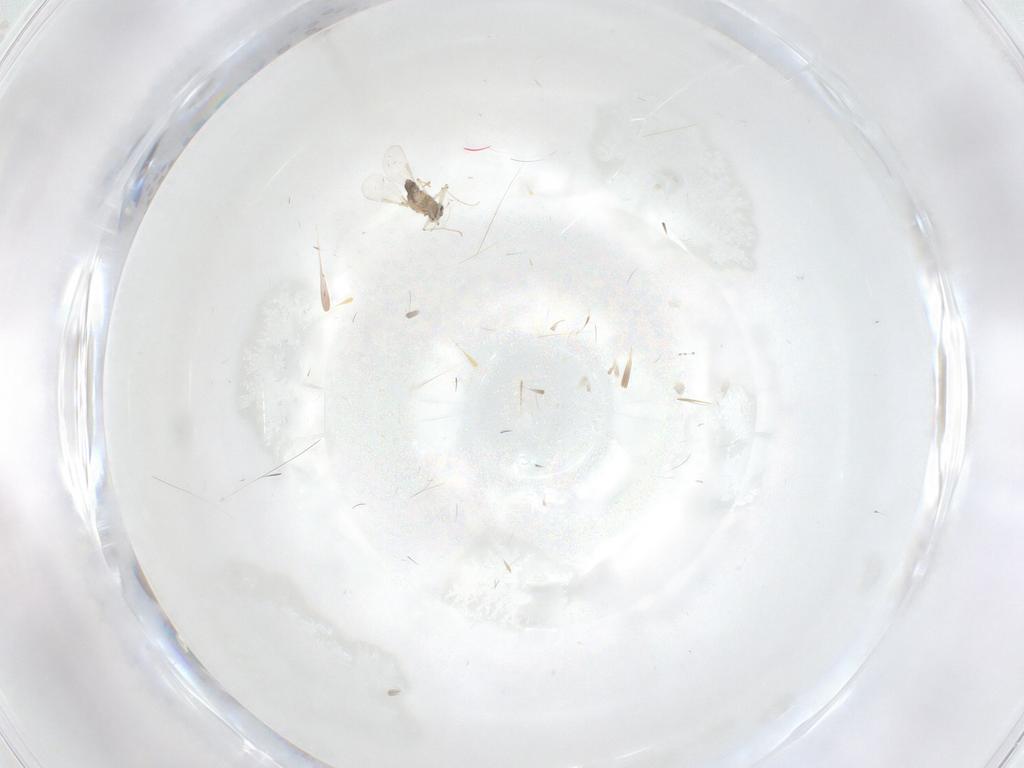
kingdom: Animalia
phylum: Arthropoda
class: Insecta
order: Diptera
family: Chironomidae
